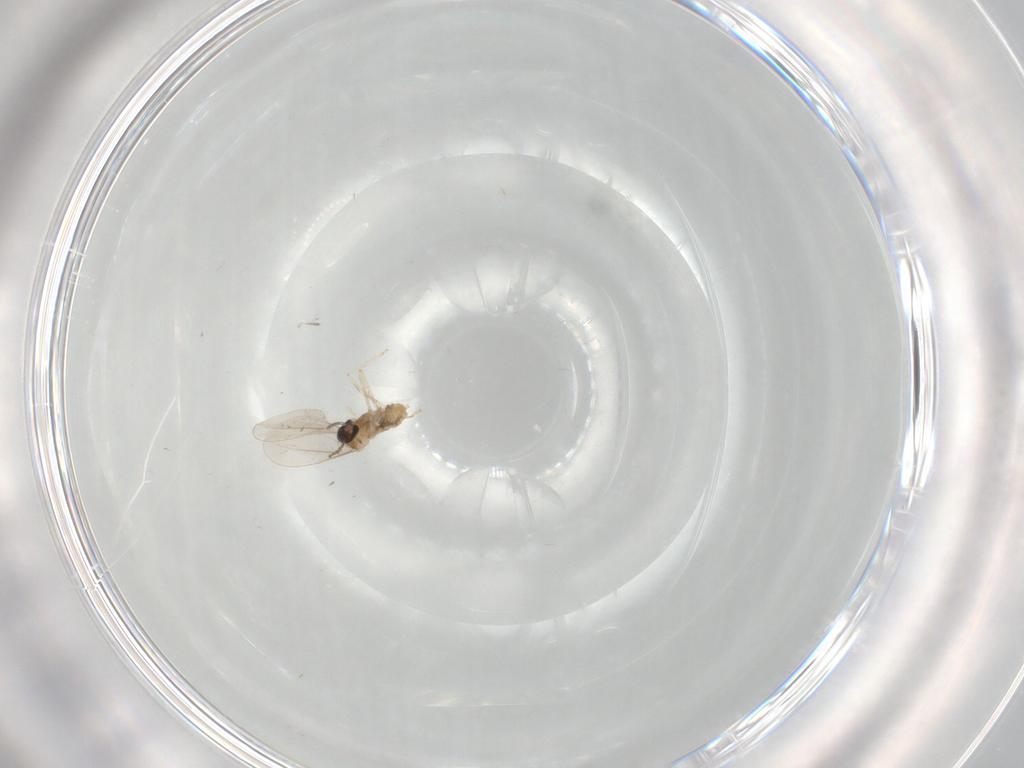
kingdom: Animalia
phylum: Arthropoda
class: Insecta
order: Diptera
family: Cecidomyiidae
